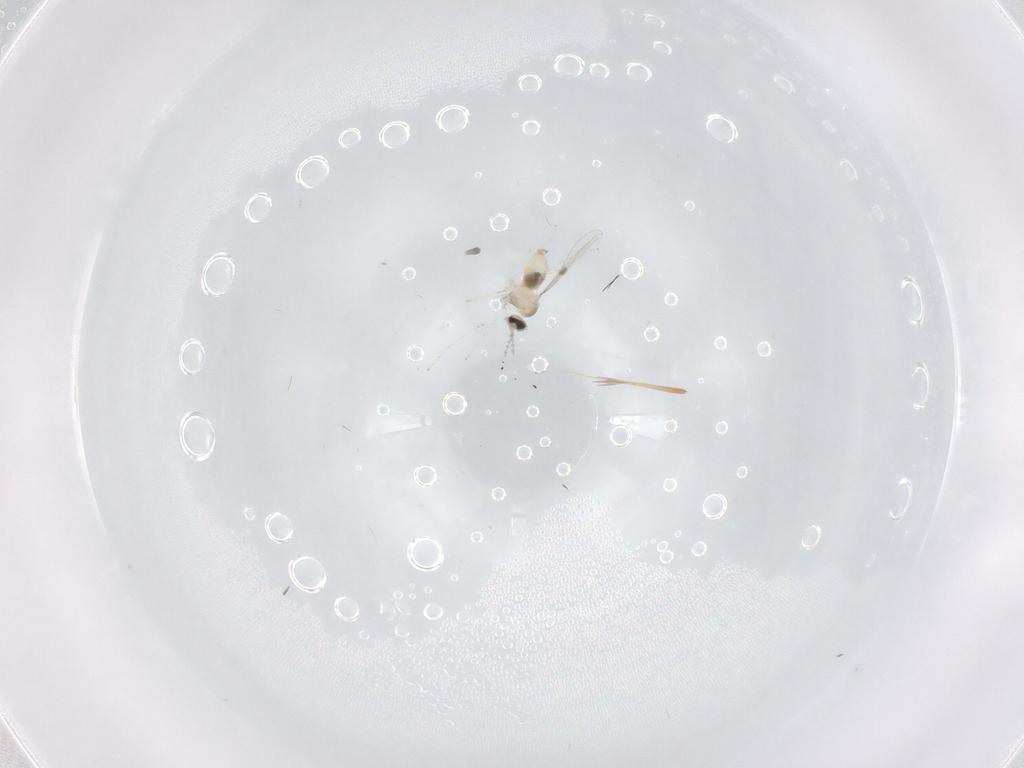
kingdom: Animalia
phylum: Arthropoda
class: Insecta
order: Diptera
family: Cecidomyiidae
